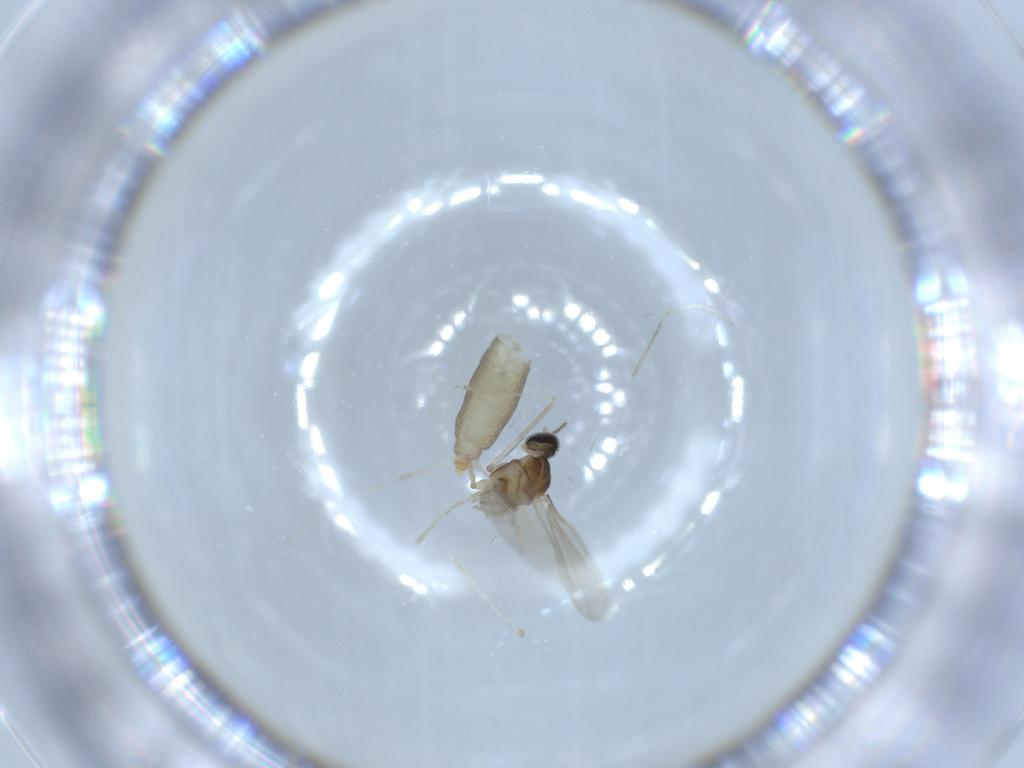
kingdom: Animalia
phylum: Arthropoda
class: Insecta
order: Diptera
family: Cecidomyiidae
